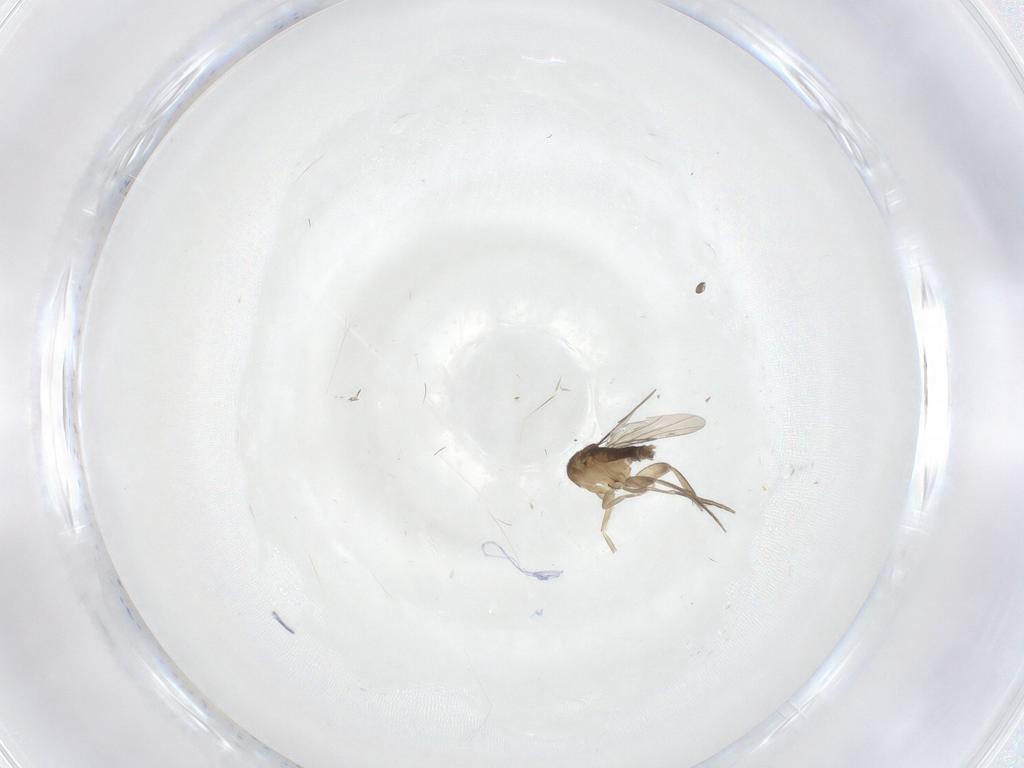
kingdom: Animalia
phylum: Arthropoda
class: Insecta
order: Diptera
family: Phoridae
